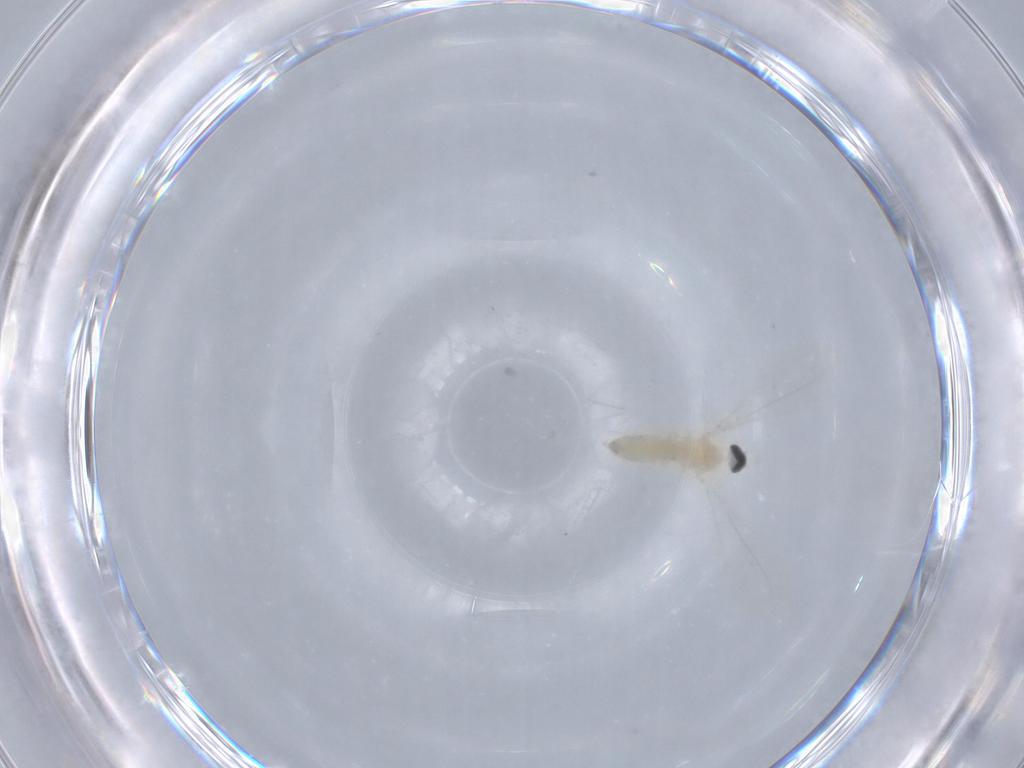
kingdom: Animalia
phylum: Arthropoda
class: Insecta
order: Diptera
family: Cecidomyiidae
